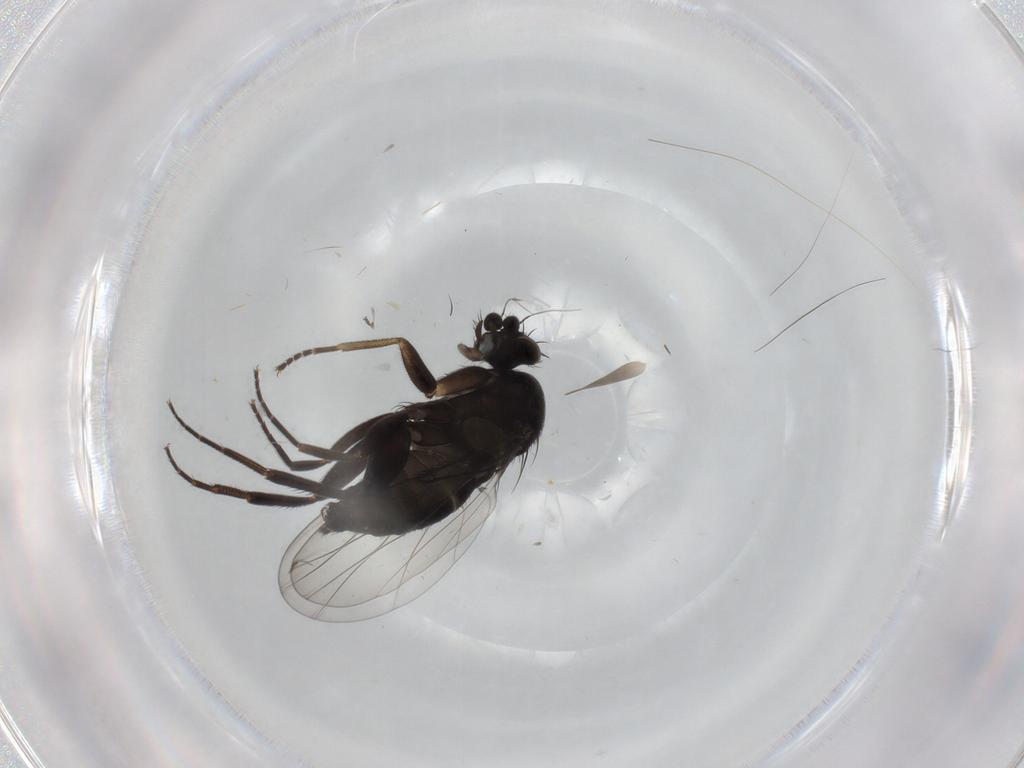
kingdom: Animalia
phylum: Arthropoda
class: Insecta
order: Diptera
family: Phoridae
